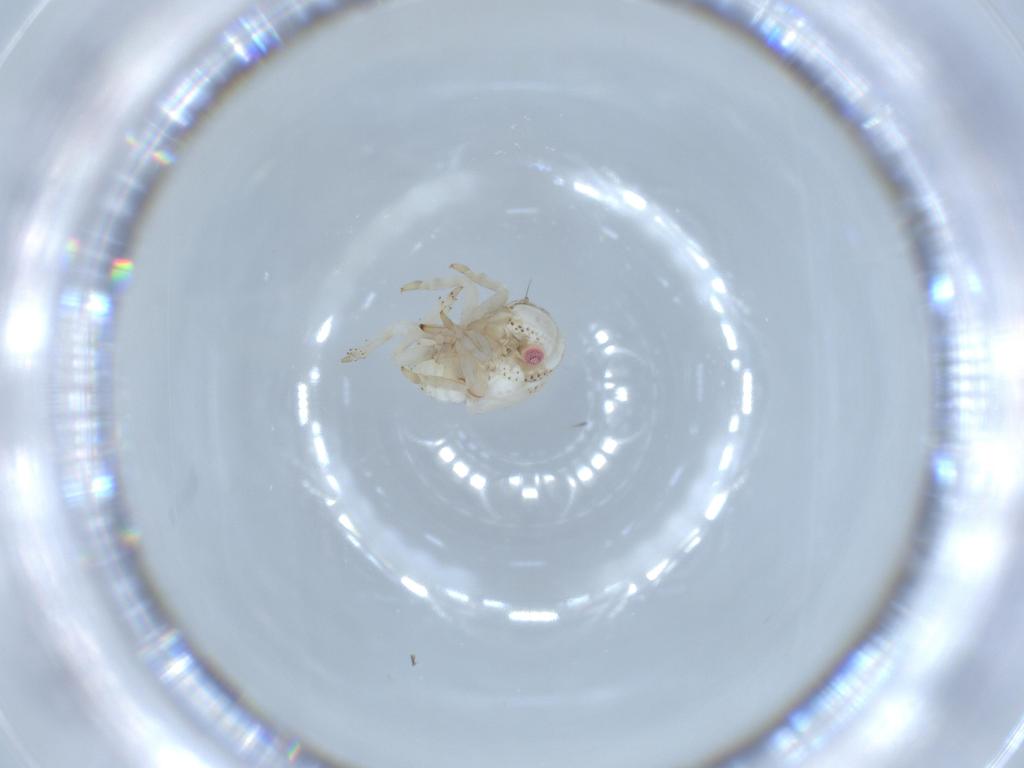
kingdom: Animalia
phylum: Arthropoda
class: Insecta
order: Hemiptera
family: Acanaloniidae
